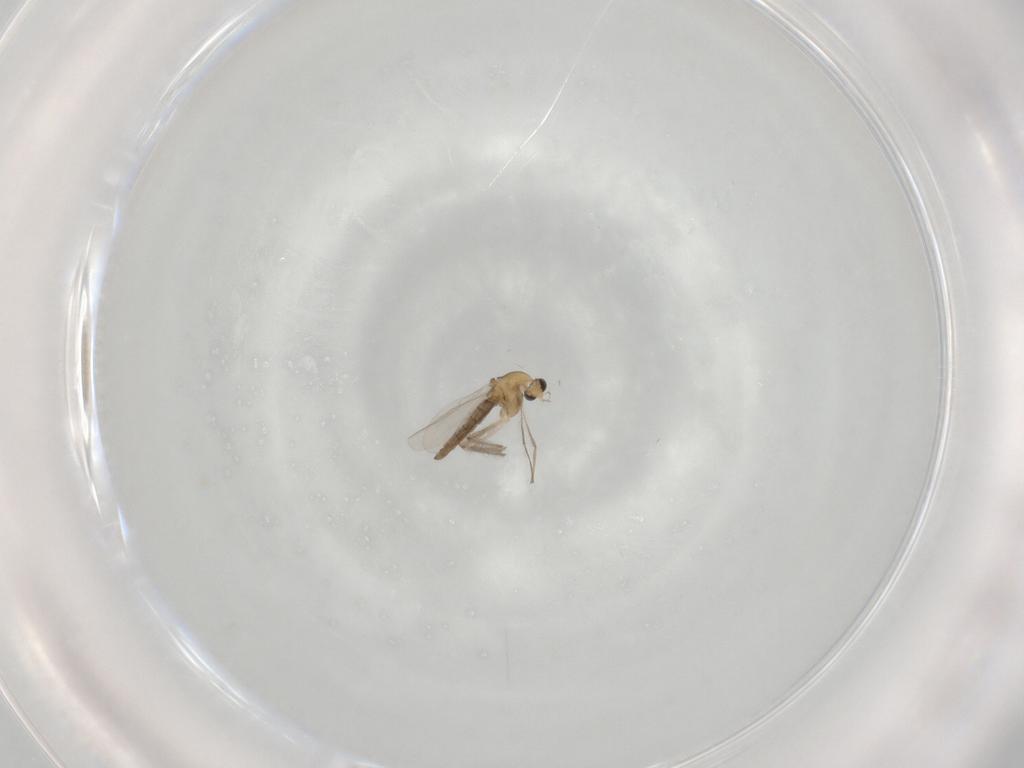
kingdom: Animalia
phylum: Arthropoda
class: Insecta
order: Diptera
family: Chironomidae
